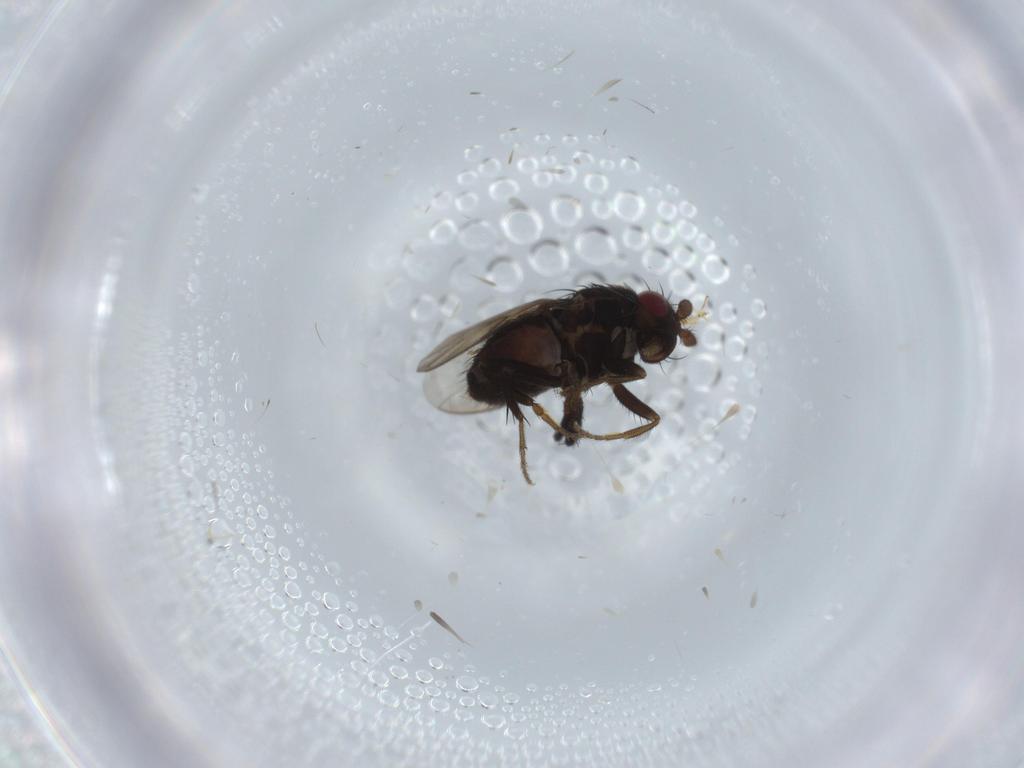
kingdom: Animalia
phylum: Arthropoda
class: Insecta
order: Diptera
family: Sphaeroceridae
